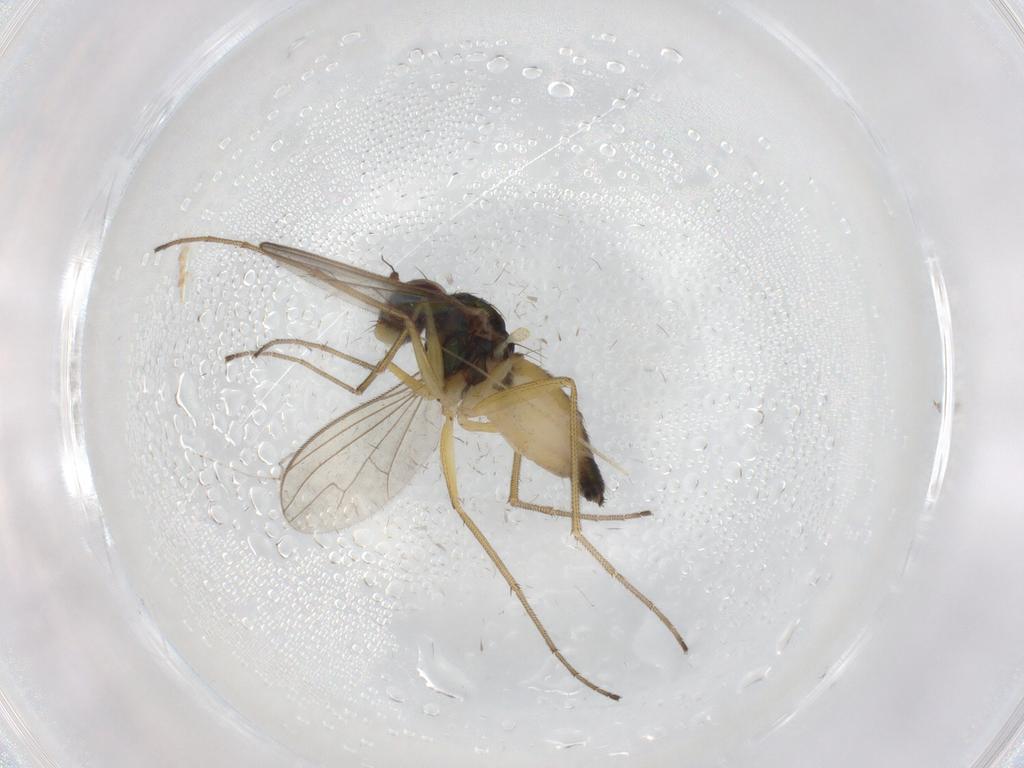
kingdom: Animalia
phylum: Arthropoda
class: Insecta
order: Diptera
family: Dolichopodidae
